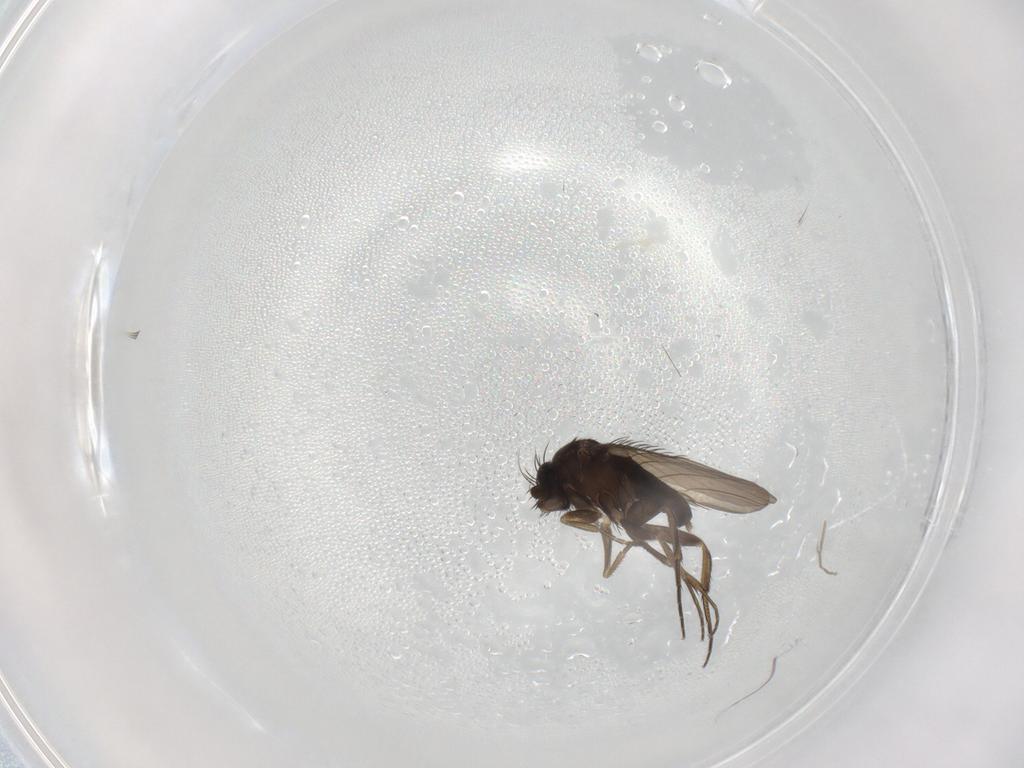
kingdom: Animalia
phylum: Arthropoda
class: Insecta
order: Diptera
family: Phoridae
